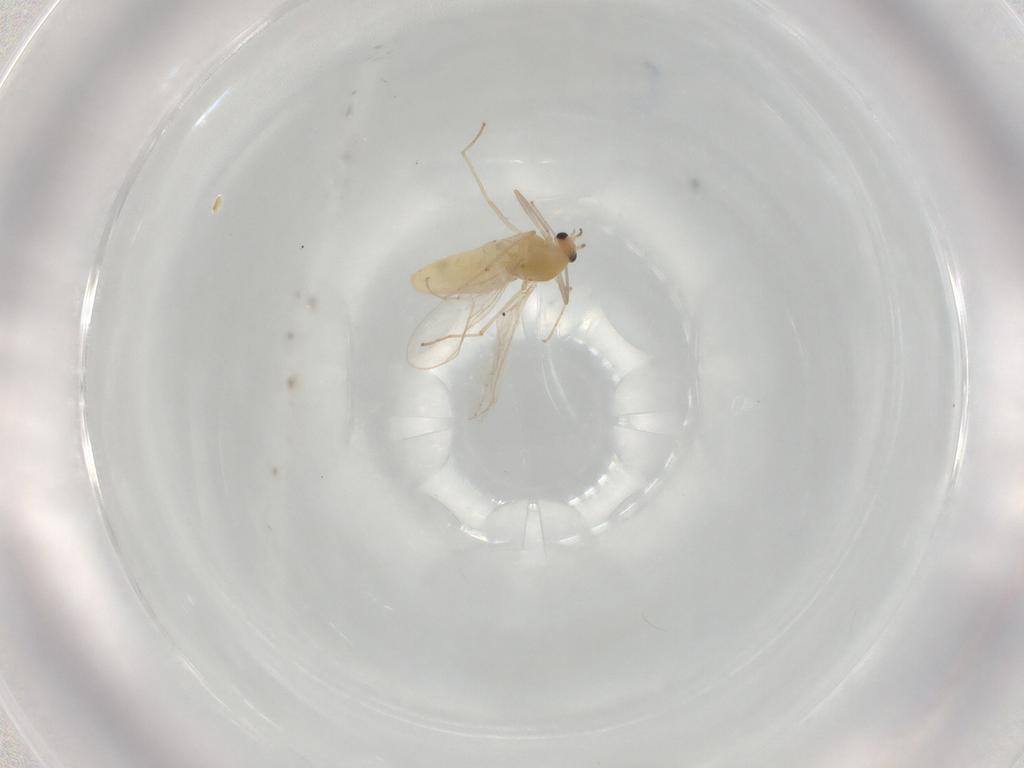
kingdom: Animalia
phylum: Arthropoda
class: Insecta
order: Diptera
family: Chironomidae
